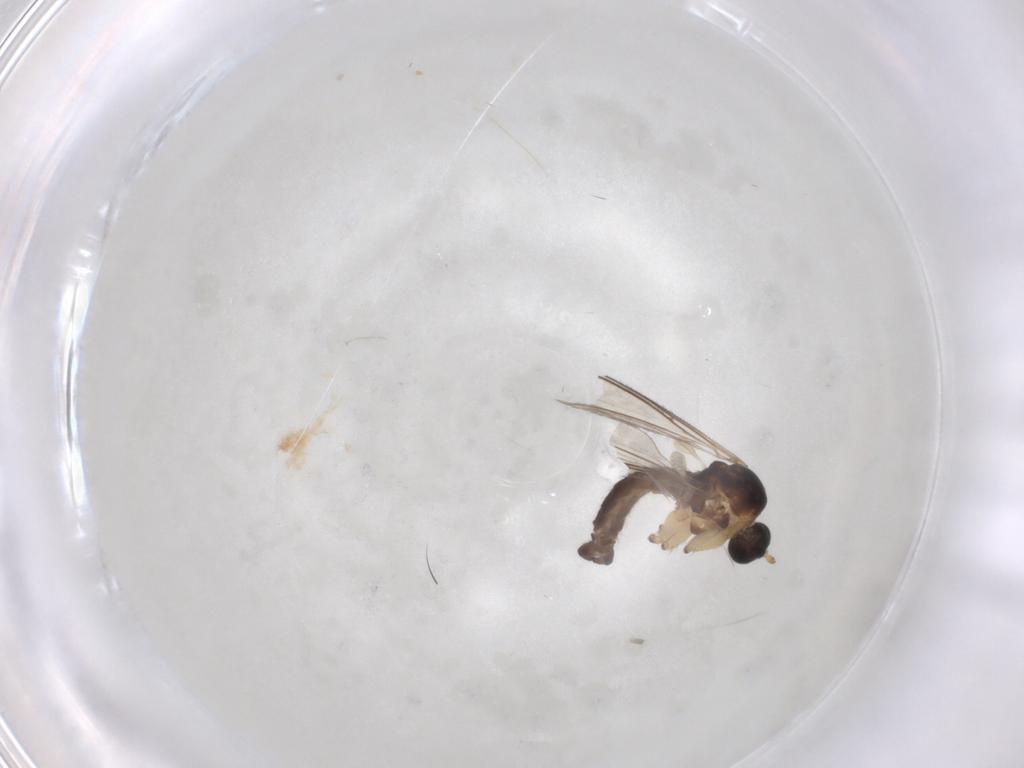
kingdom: Animalia
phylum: Arthropoda
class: Insecta
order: Diptera
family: Sciaridae
